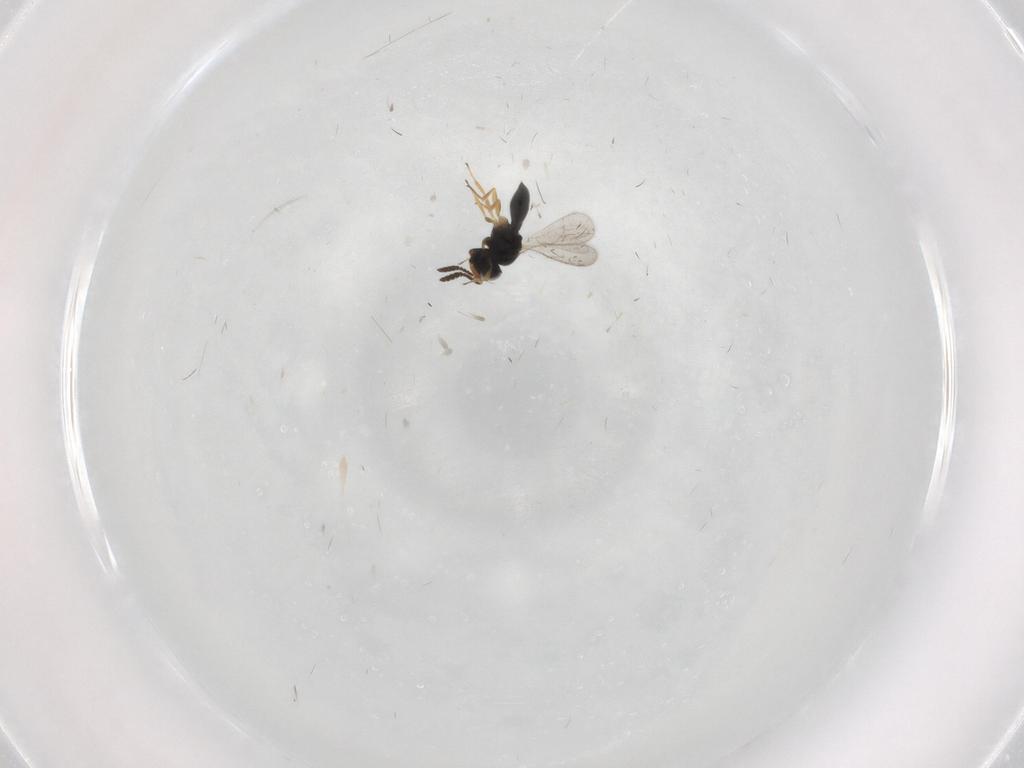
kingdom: Animalia
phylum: Arthropoda
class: Insecta
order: Hymenoptera
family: Scelionidae
